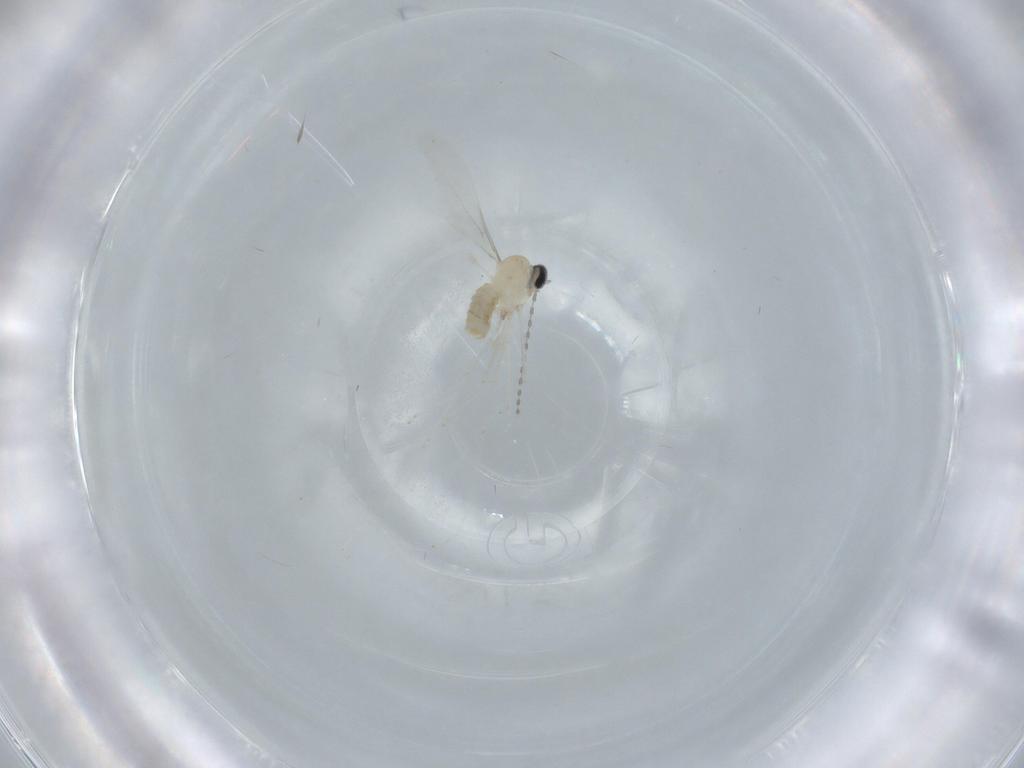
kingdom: Animalia
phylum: Arthropoda
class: Insecta
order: Diptera
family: Cecidomyiidae
